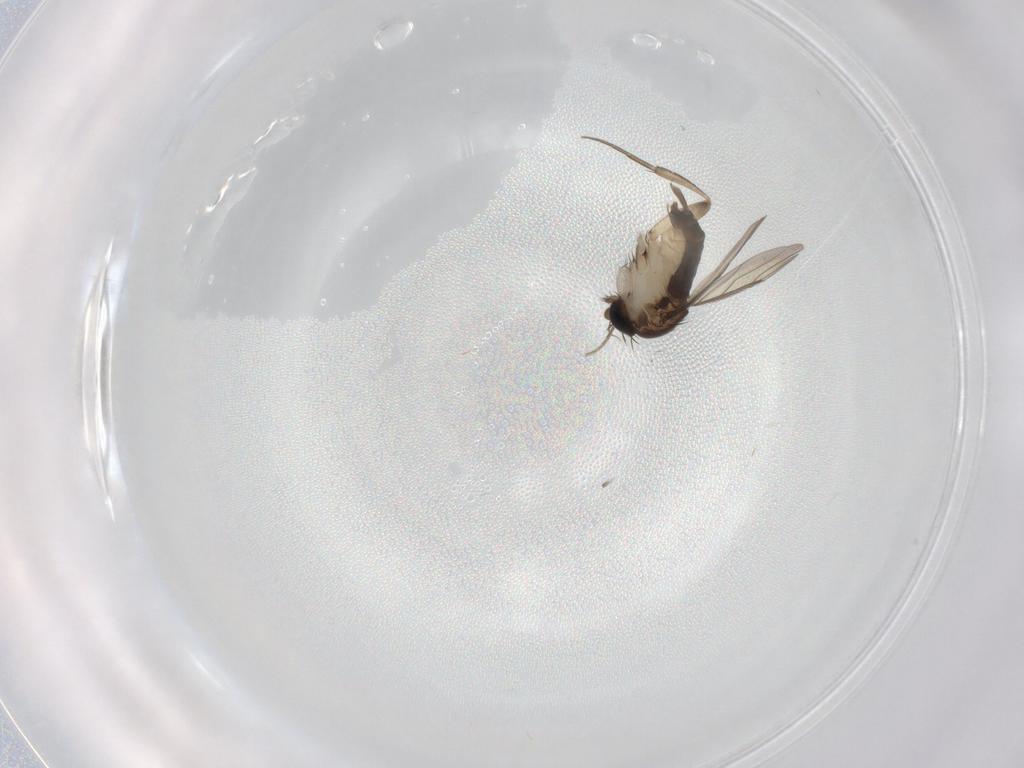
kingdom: Animalia
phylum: Arthropoda
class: Insecta
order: Diptera
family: Phoridae
